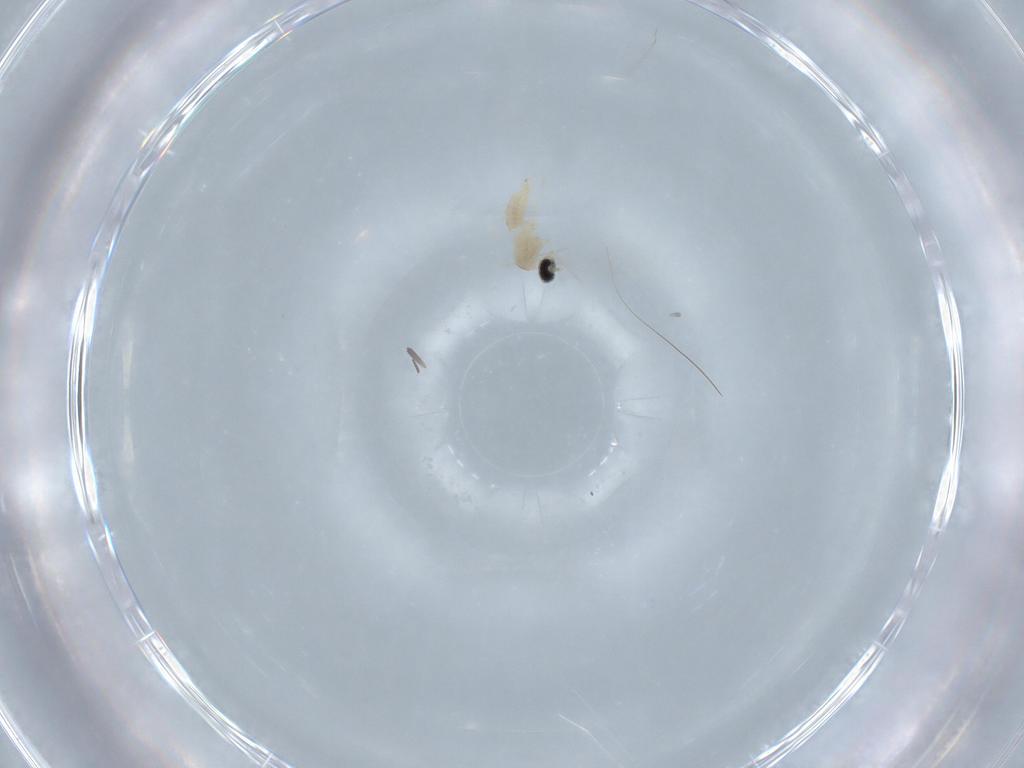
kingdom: Animalia
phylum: Arthropoda
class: Insecta
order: Diptera
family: Cecidomyiidae
